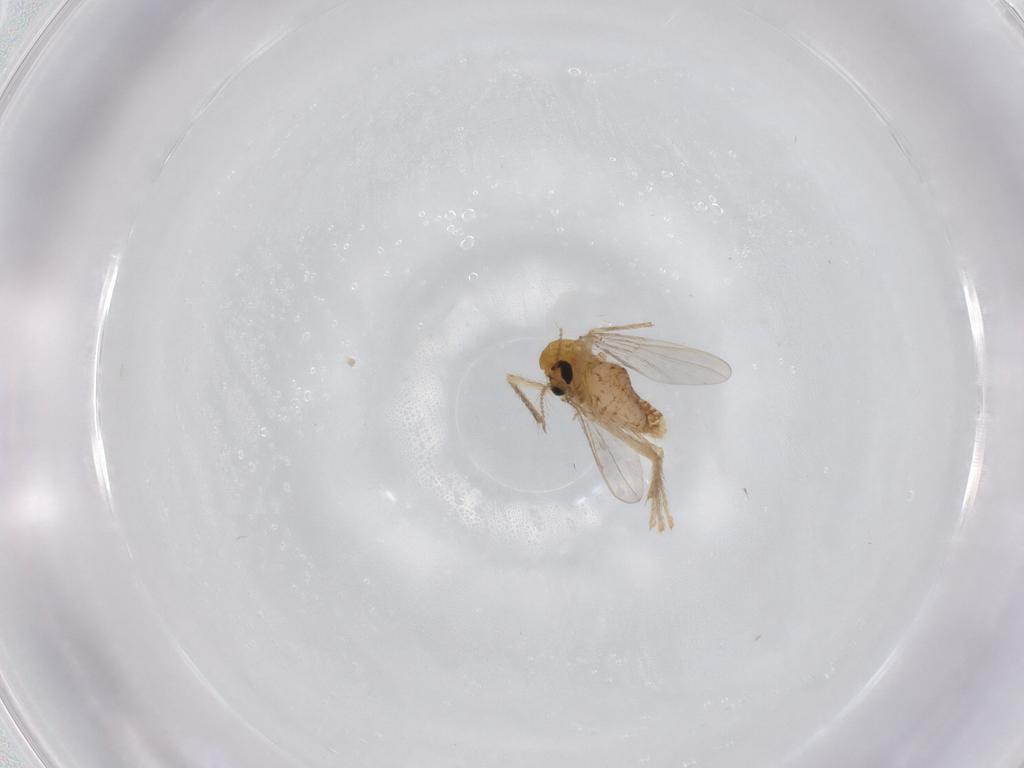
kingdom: Animalia
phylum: Arthropoda
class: Insecta
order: Diptera
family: Chironomidae
